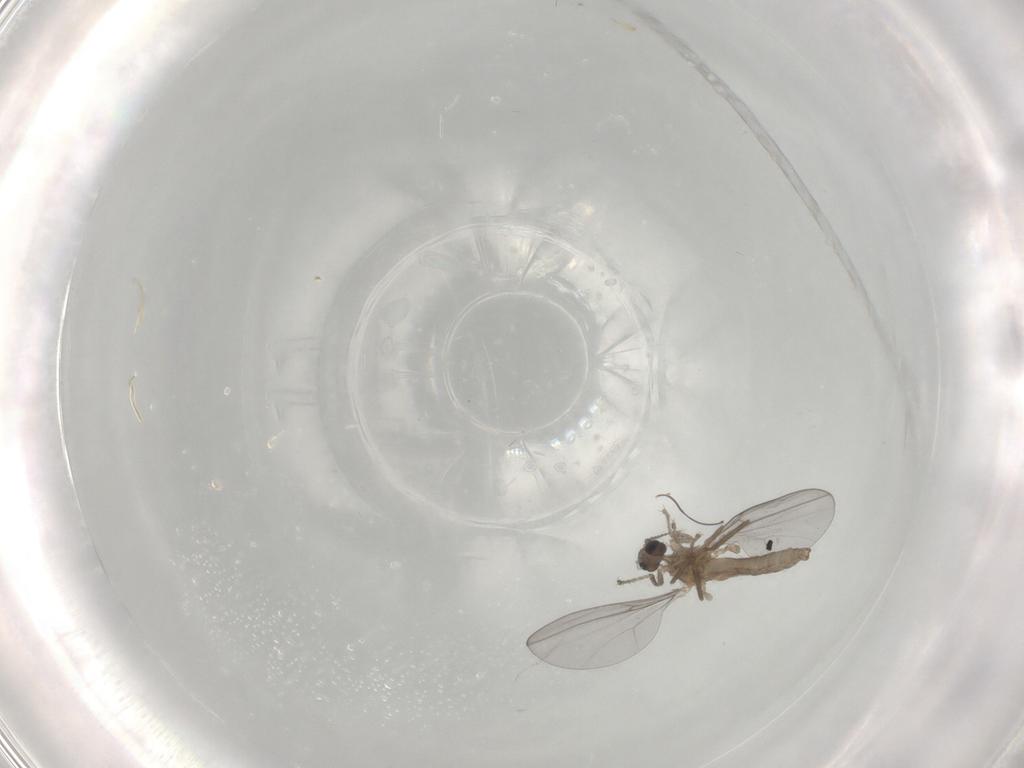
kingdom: Animalia
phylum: Arthropoda
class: Insecta
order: Diptera
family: Cecidomyiidae
